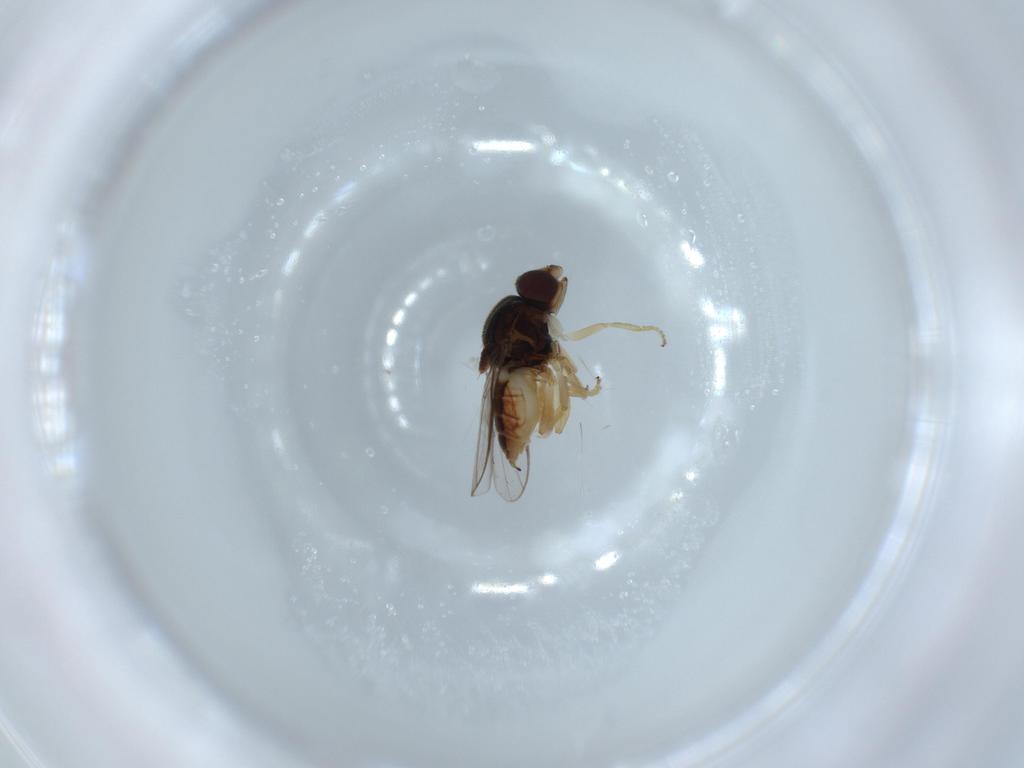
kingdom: Animalia
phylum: Arthropoda
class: Insecta
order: Diptera
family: Chloropidae
